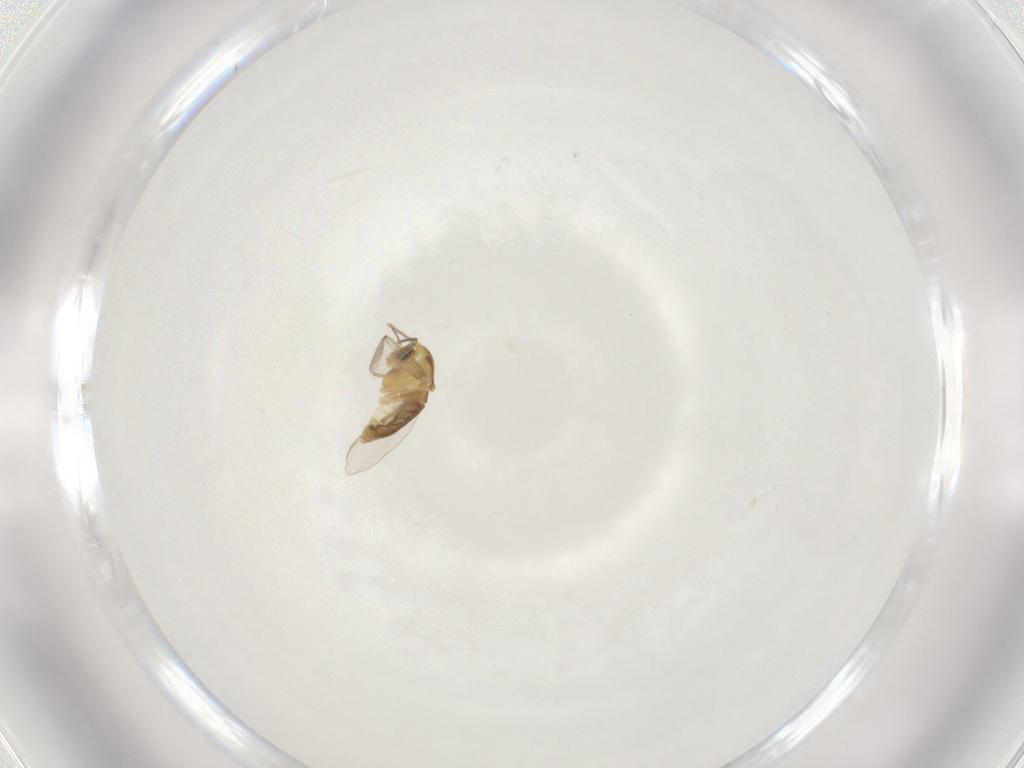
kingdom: Animalia
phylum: Arthropoda
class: Insecta
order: Diptera
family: Chironomidae
